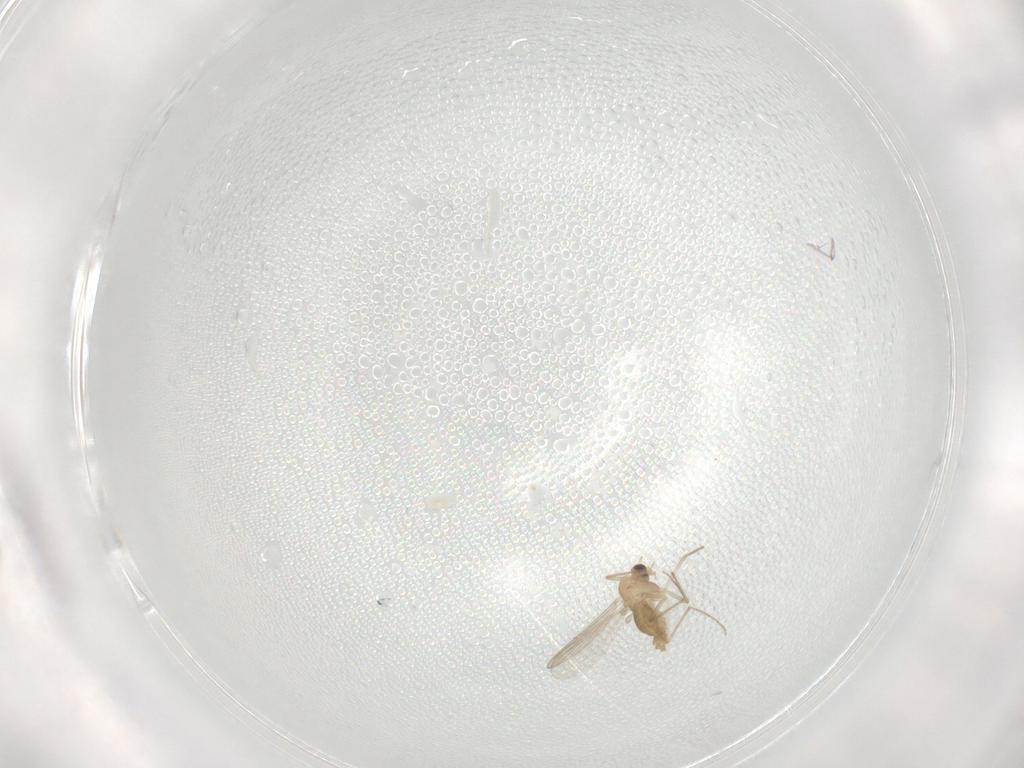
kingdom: Animalia
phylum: Arthropoda
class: Insecta
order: Diptera
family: Chironomidae
